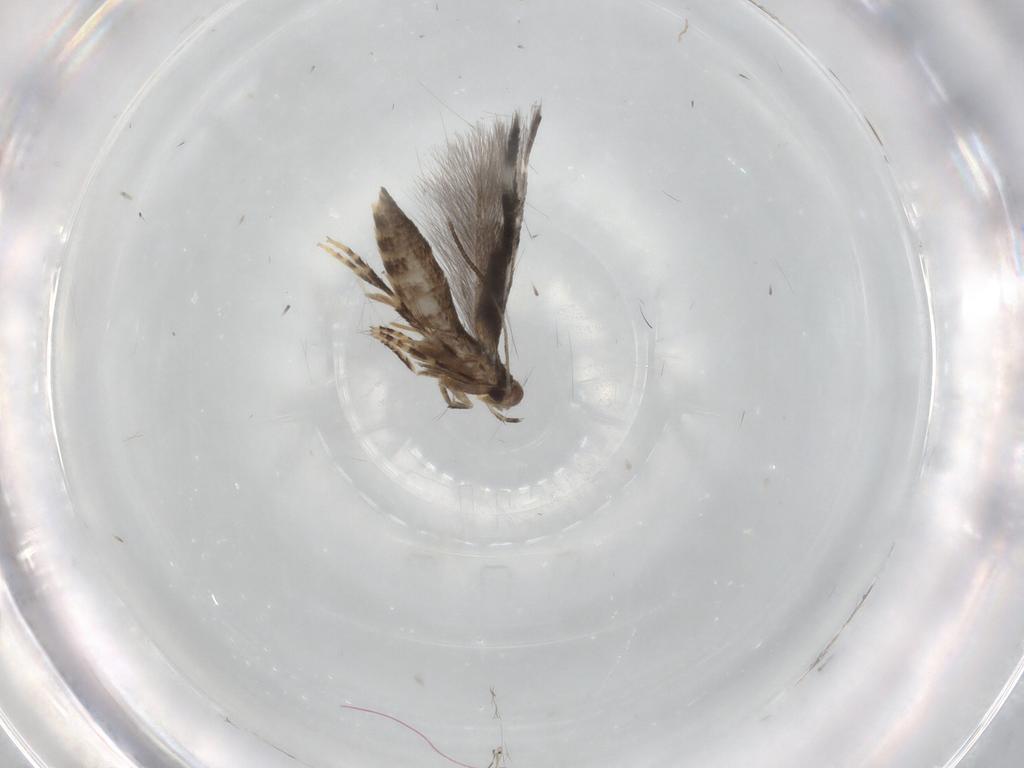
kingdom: Animalia
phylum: Arthropoda
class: Insecta
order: Lepidoptera
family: Elachistidae
